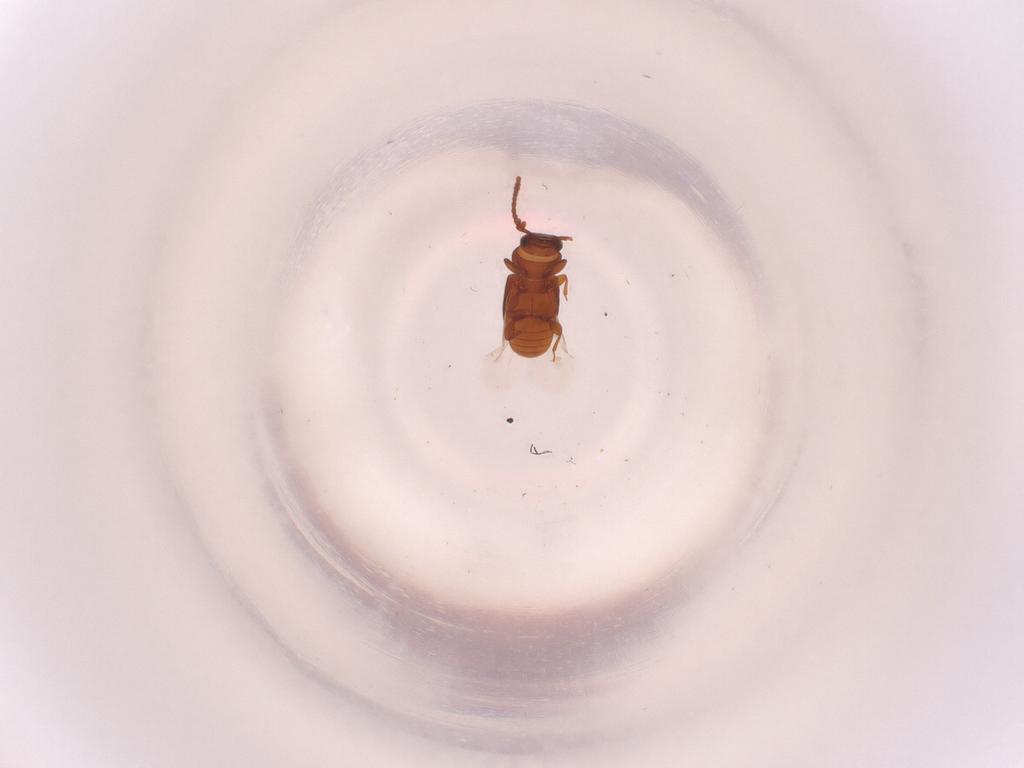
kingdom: Animalia
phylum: Arthropoda
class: Insecta
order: Coleoptera
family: Laemophloeidae
